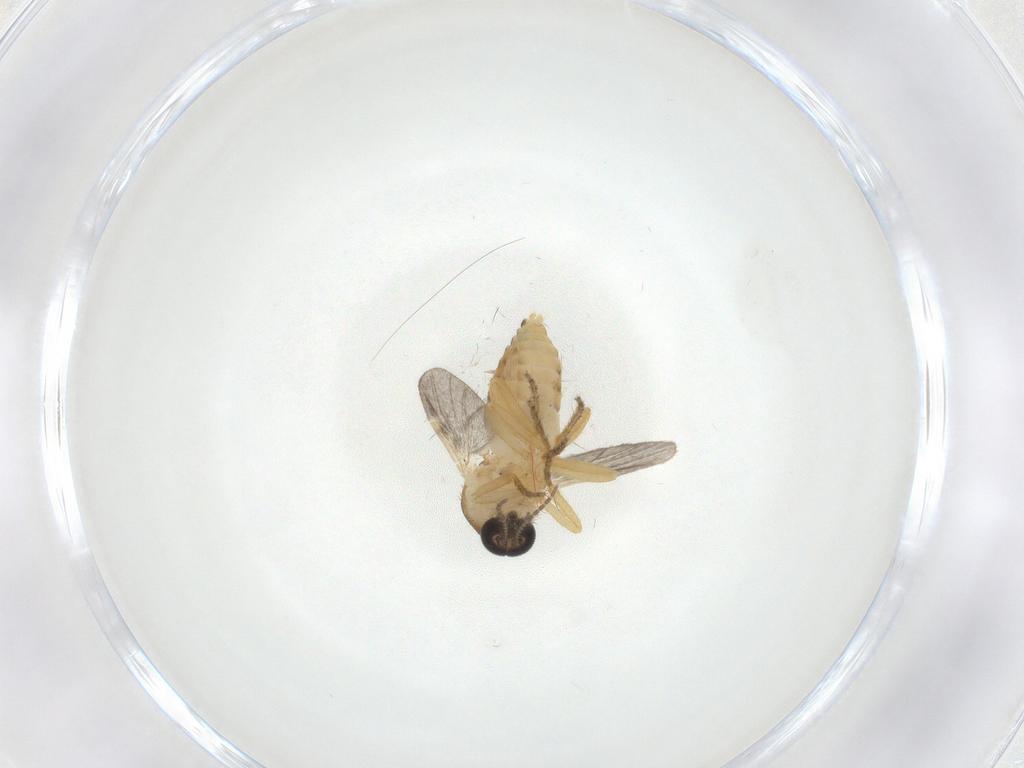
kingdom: Animalia
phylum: Arthropoda
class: Insecta
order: Diptera
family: Ceratopogonidae
